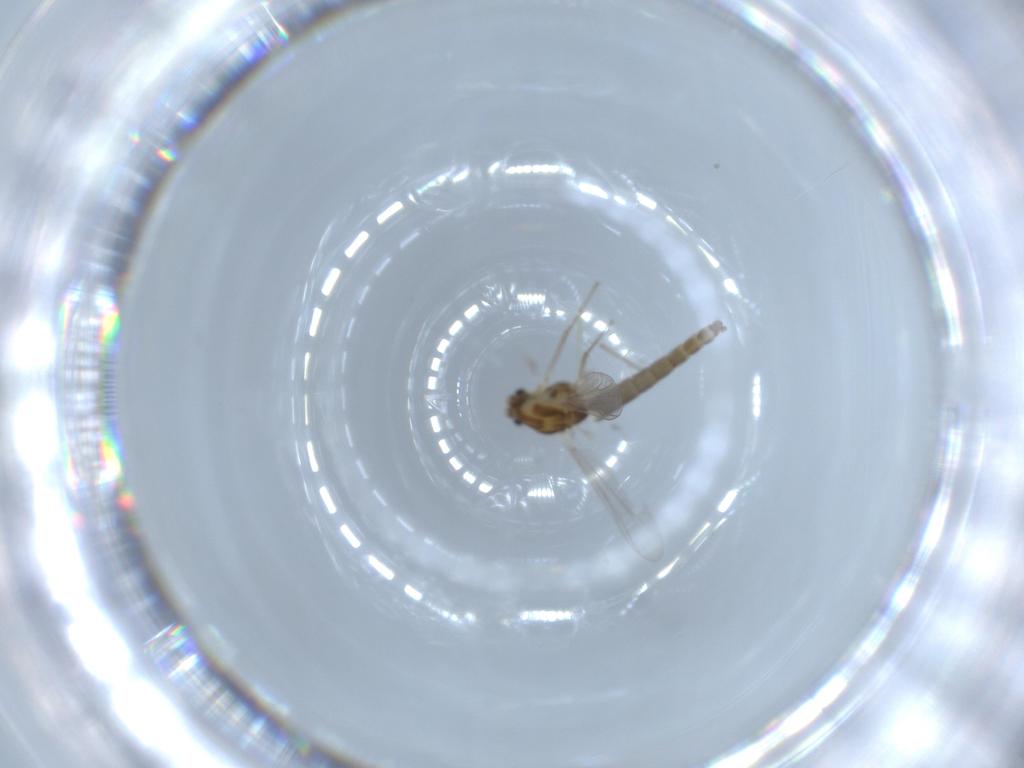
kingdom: Animalia
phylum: Arthropoda
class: Insecta
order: Diptera
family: Chironomidae
